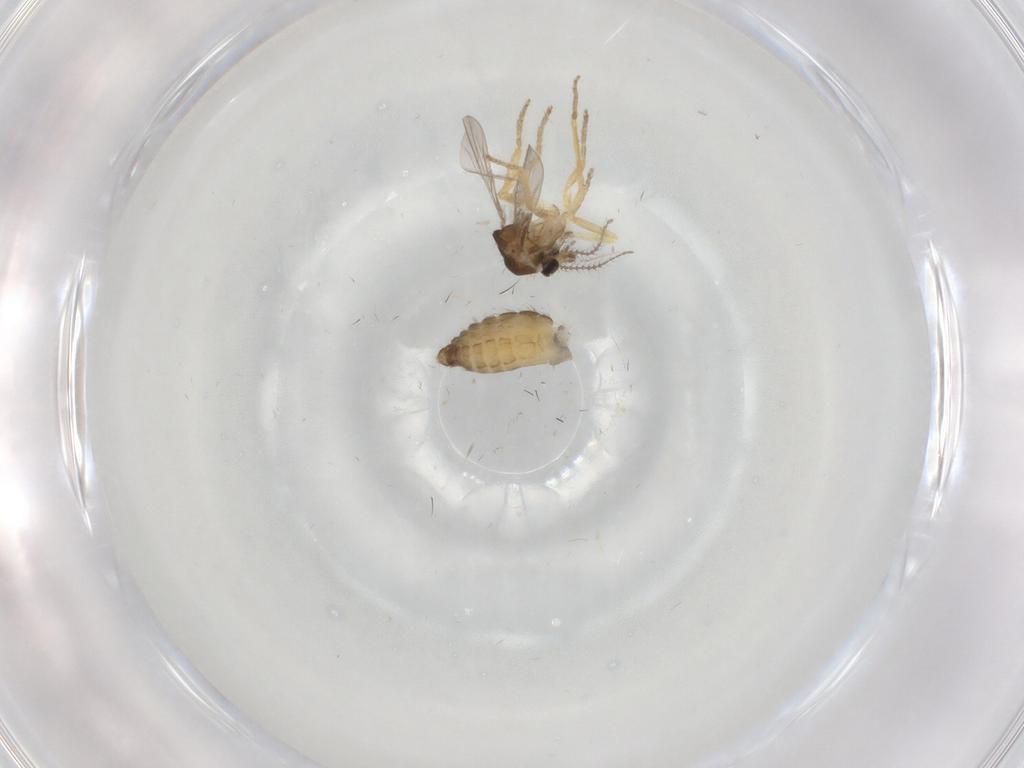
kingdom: Animalia
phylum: Arthropoda
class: Insecta
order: Diptera
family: Ceratopogonidae
